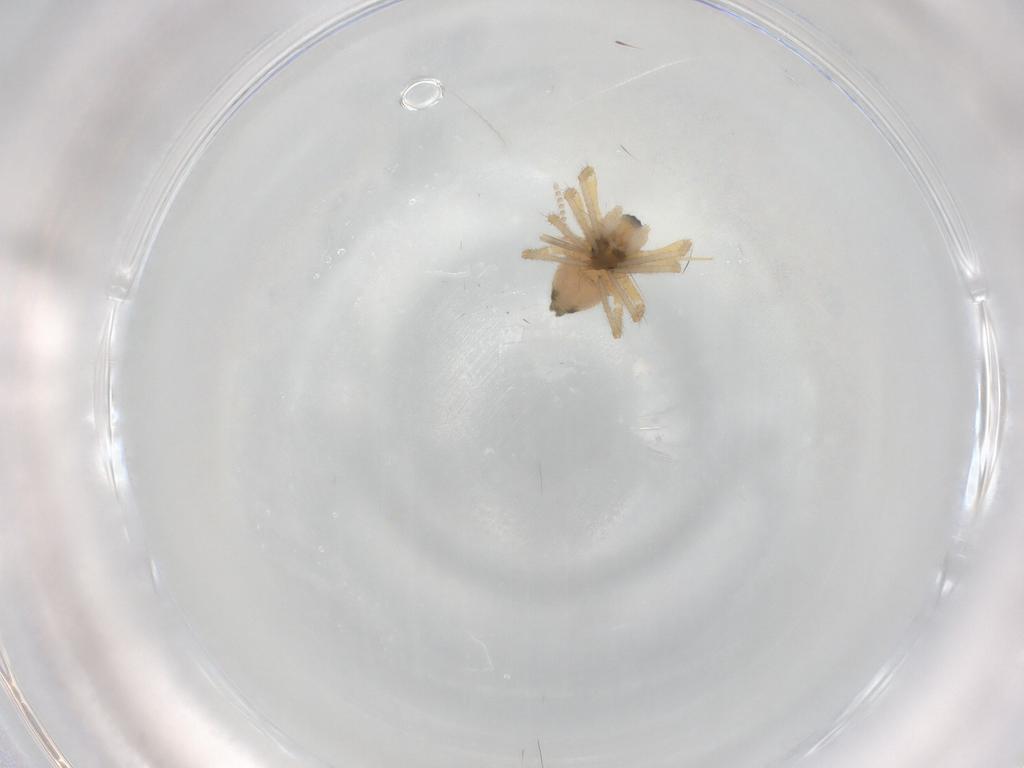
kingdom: Animalia
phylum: Arthropoda
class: Arachnida
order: Araneae
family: Linyphiidae
